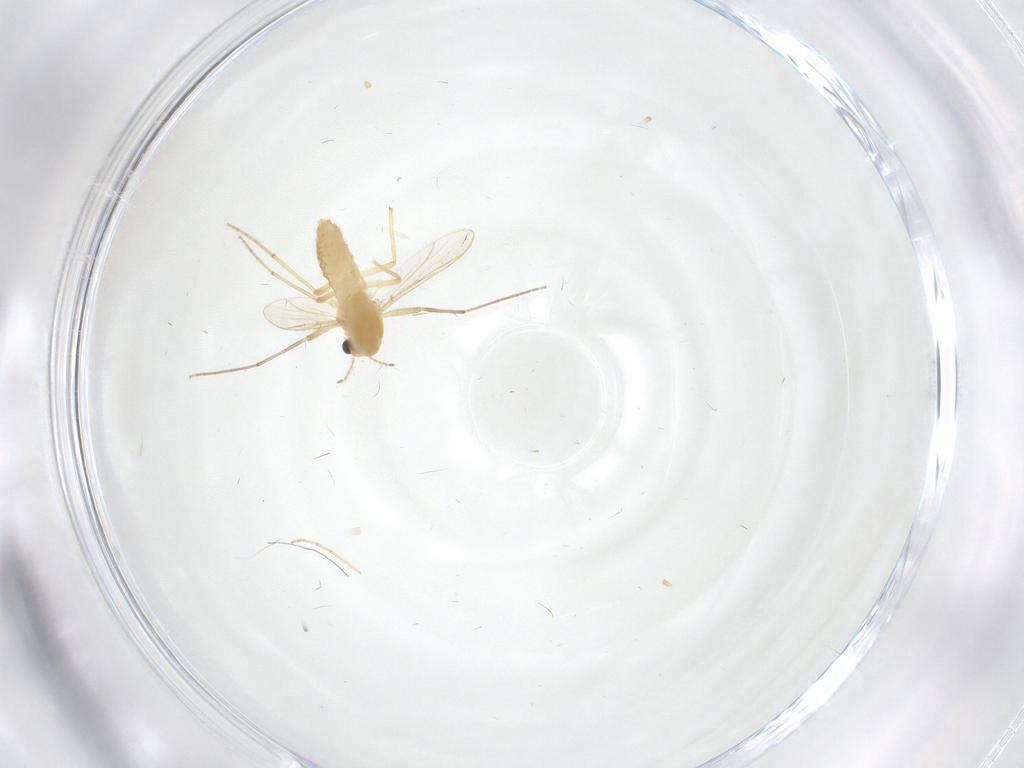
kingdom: Animalia
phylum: Arthropoda
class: Insecta
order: Diptera
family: Chironomidae
